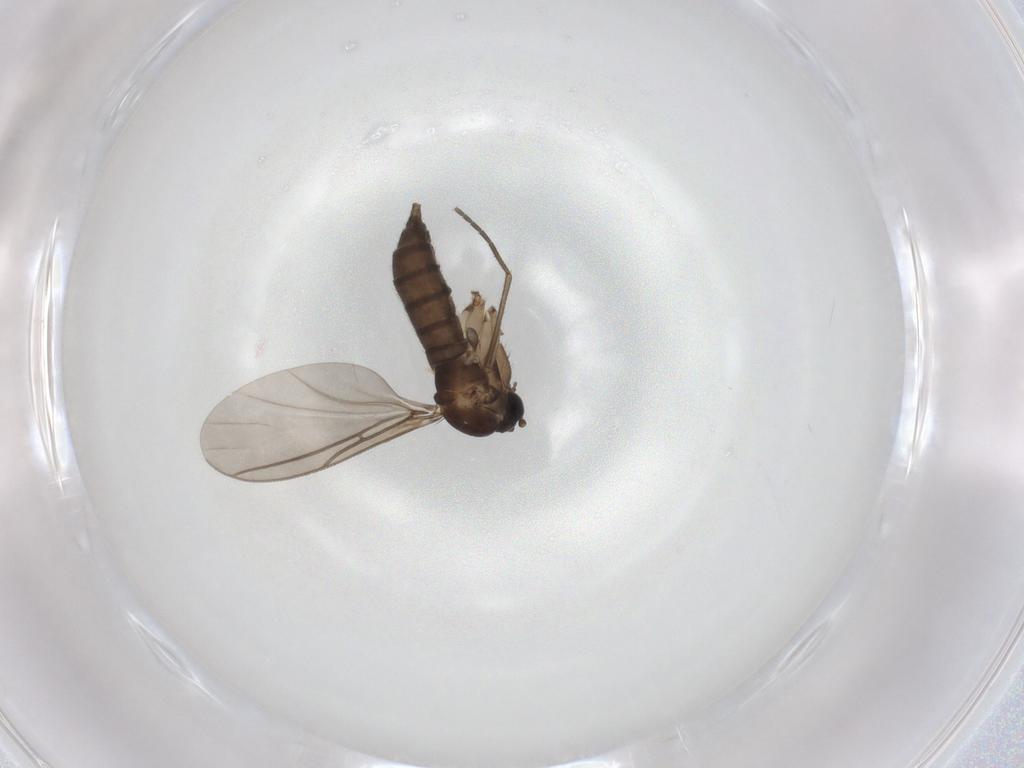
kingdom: Animalia
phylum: Arthropoda
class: Insecta
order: Diptera
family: Sciaridae
